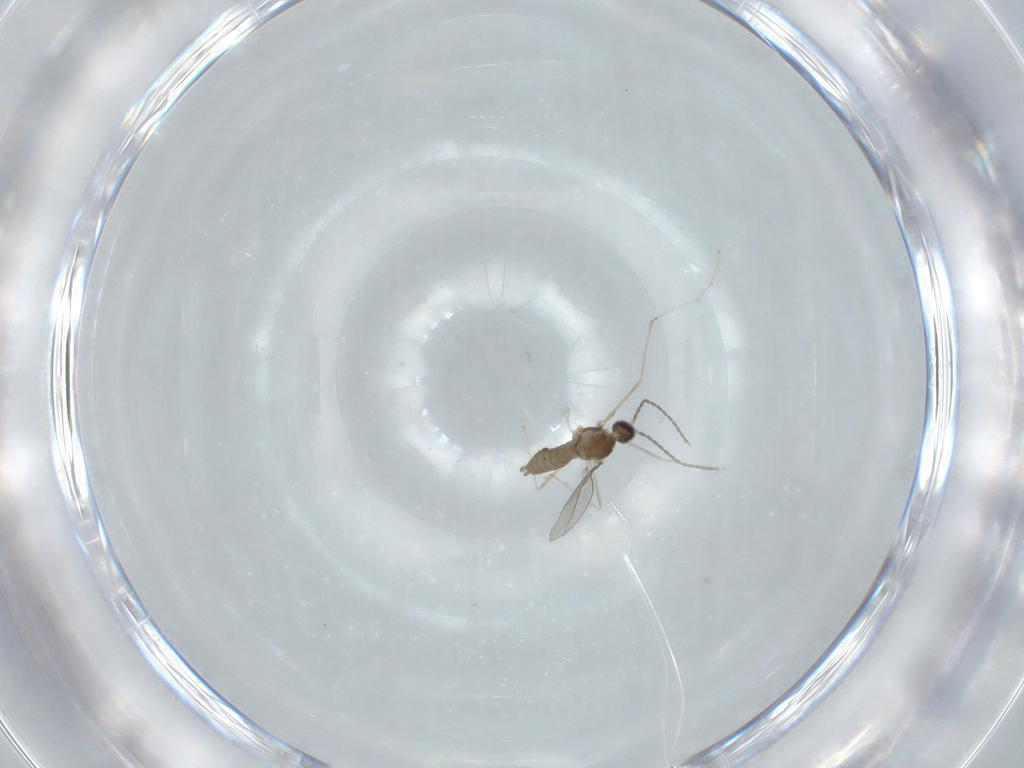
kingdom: Animalia
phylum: Arthropoda
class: Insecta
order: Diptera
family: Cecidomyiidae
